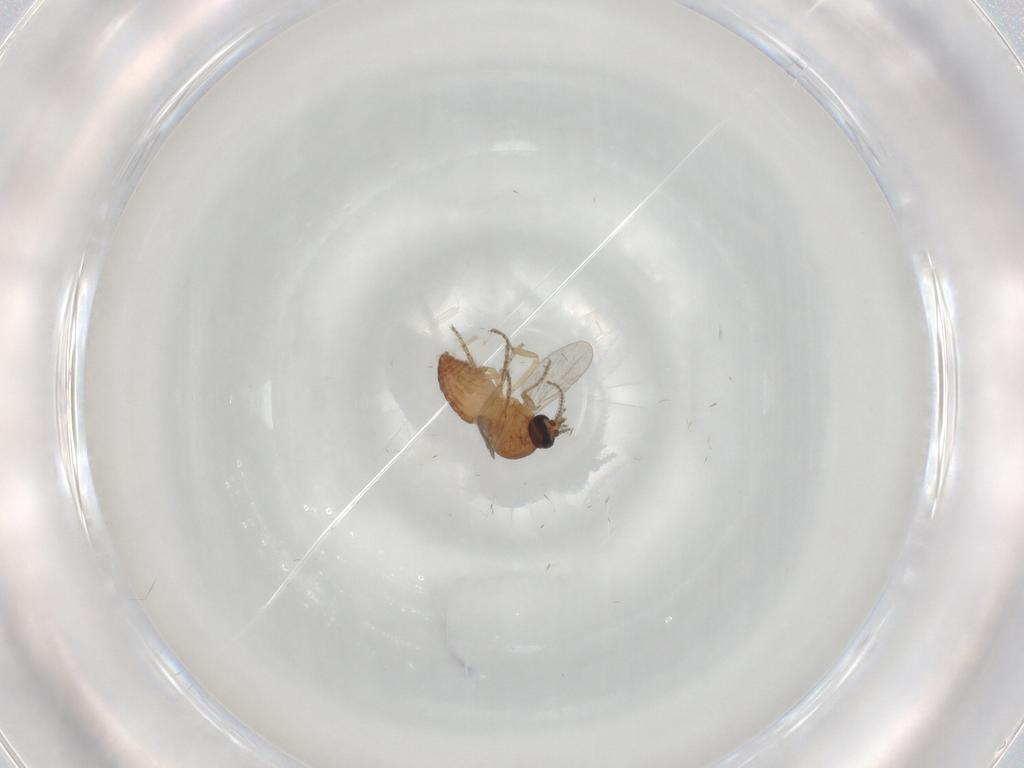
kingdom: Animalia
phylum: Arthropoda
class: Insecta
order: Diptera
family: Ceratopogonidae
